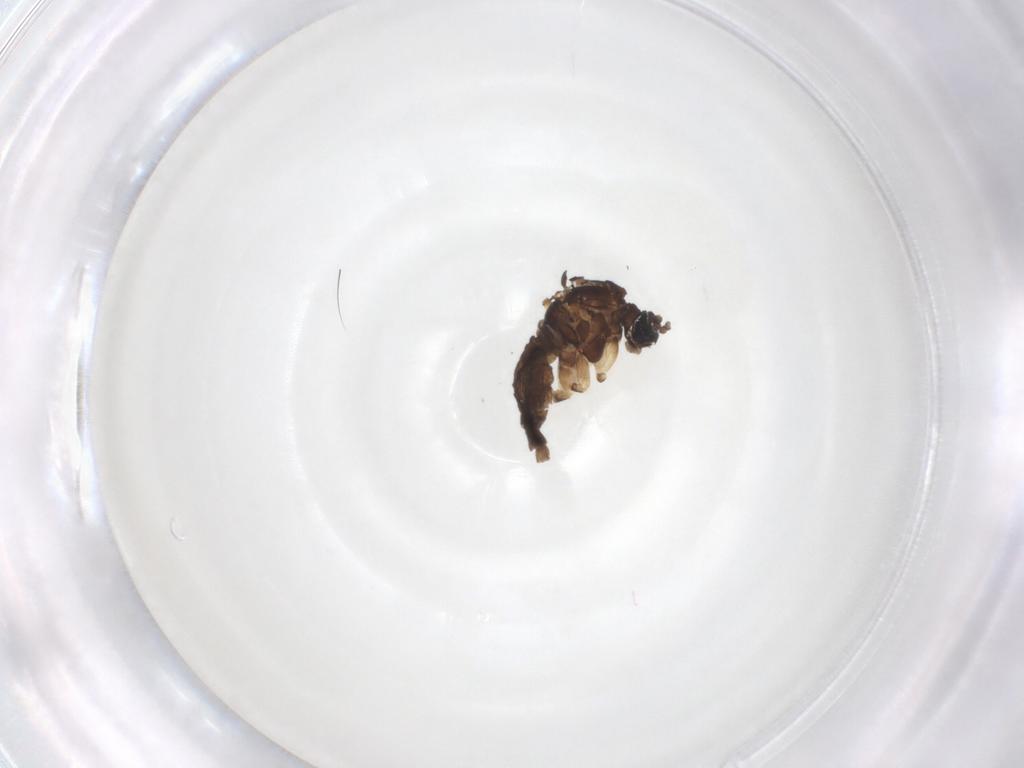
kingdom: Animalia
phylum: Arthropoda
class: Insecta
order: Diptera
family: Sciaridae
